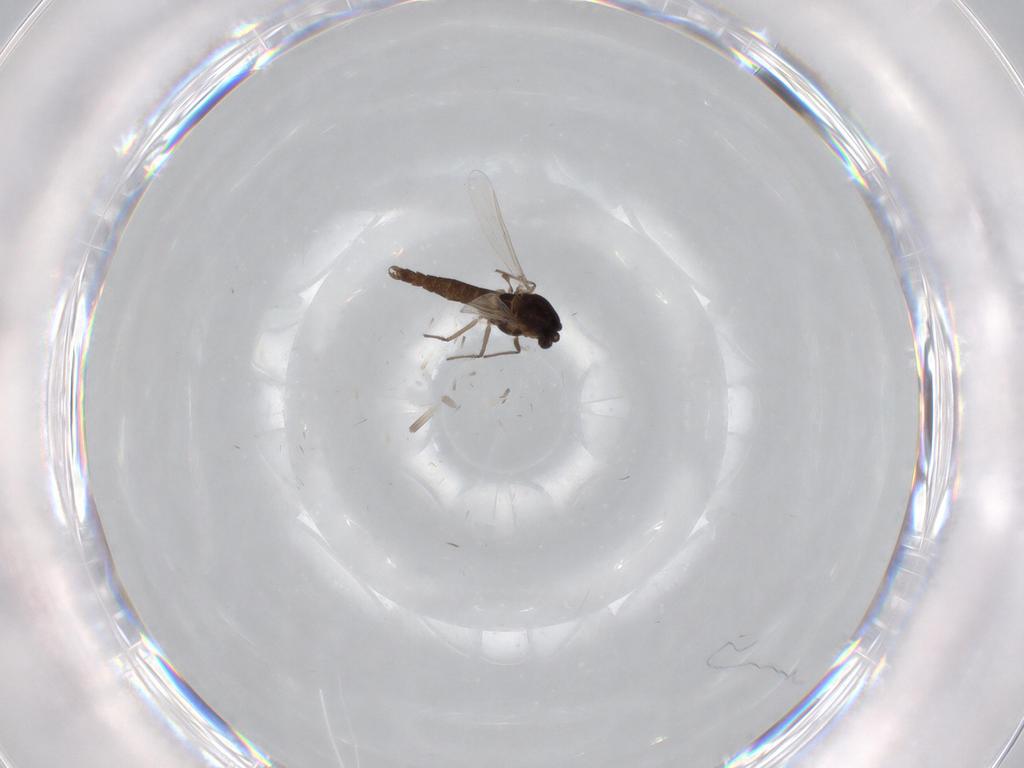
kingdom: Animalia
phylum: Arthropoda
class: Insecta
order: Diptera
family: Chironomidae
